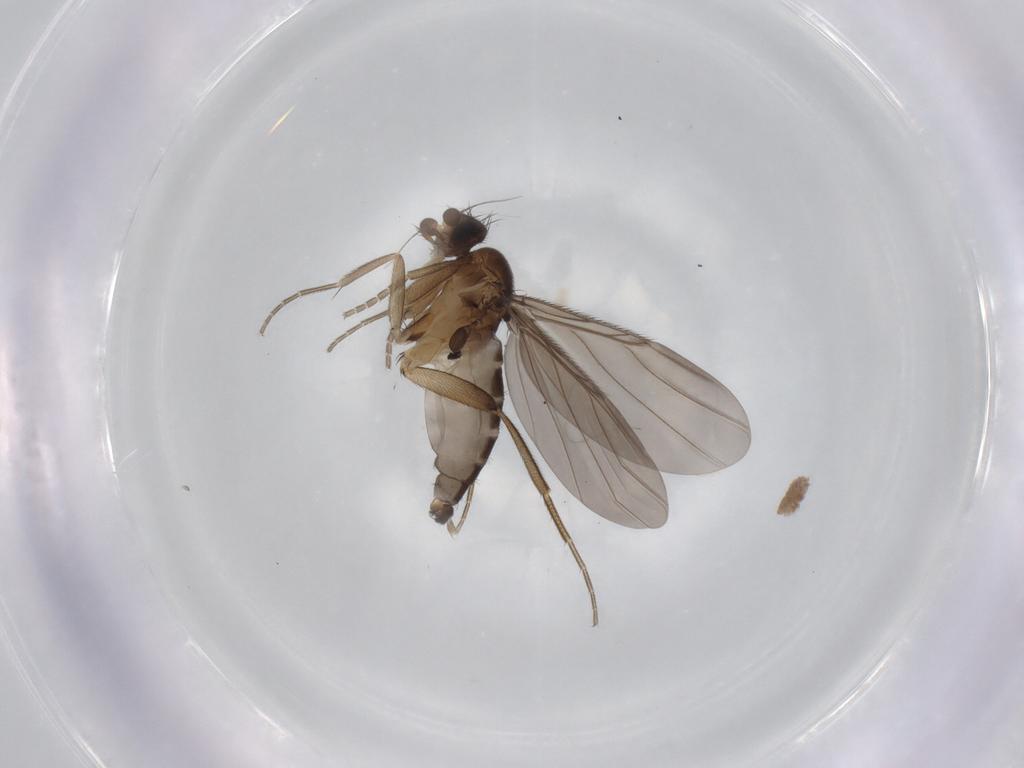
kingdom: Animalia
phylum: Arthropoda
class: Insecta
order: Diptera
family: Phoridae
